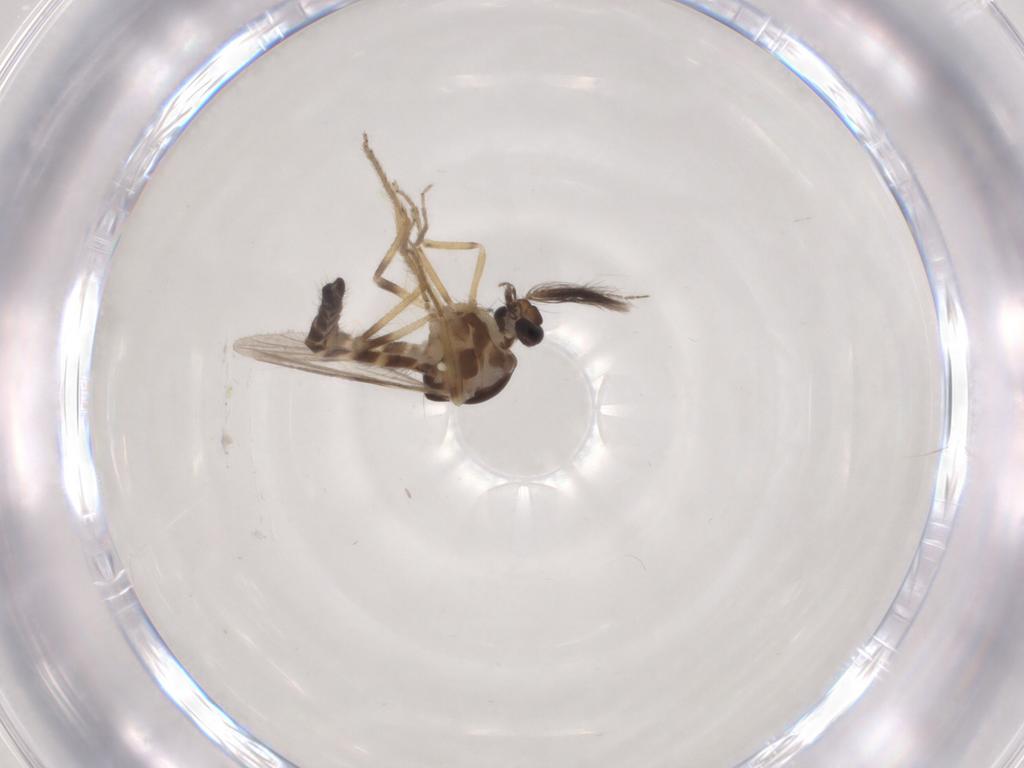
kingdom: Animalia
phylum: Arthropoda
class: Insecta
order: Diptera
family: Ceratopogonidae
